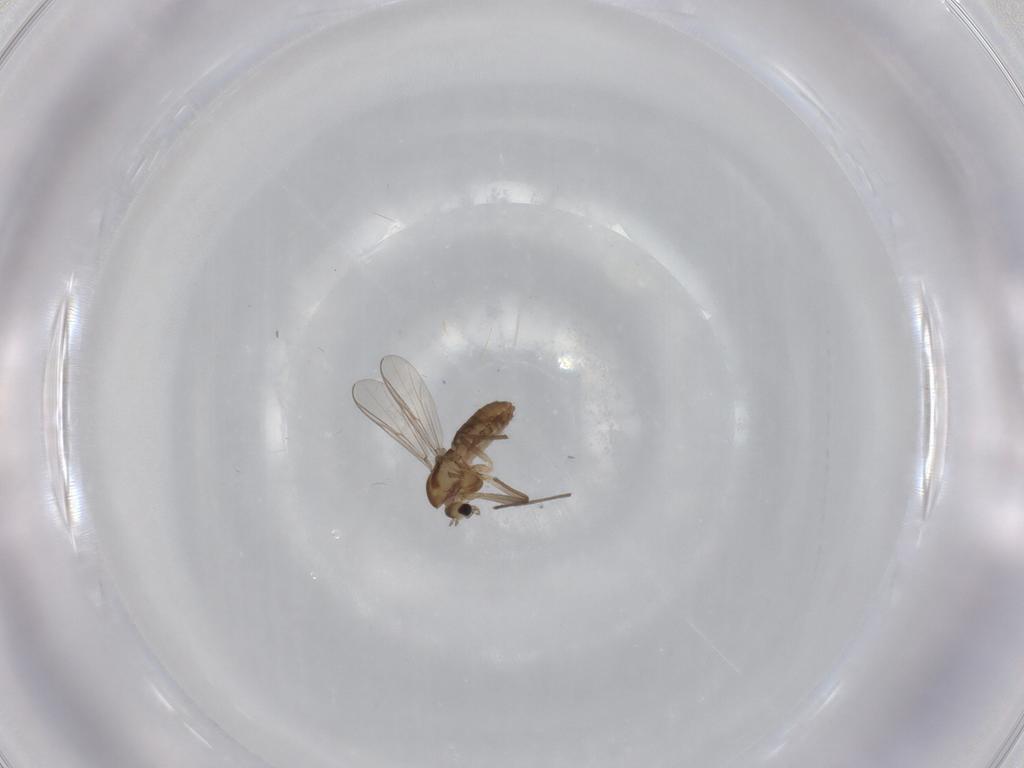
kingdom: Animalia
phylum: Arthropoda
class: Insecta
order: Diptera
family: Chironomidae
